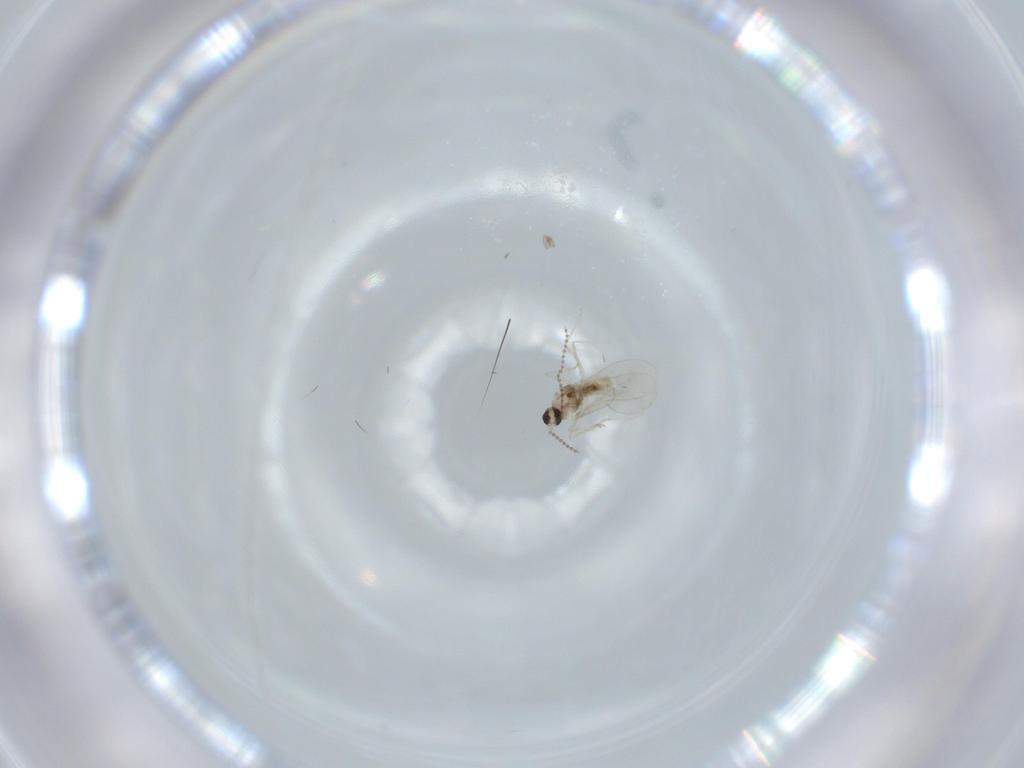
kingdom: Animalia
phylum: Arthropoda
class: Insecta
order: Diptera
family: Cecidomyiidae
